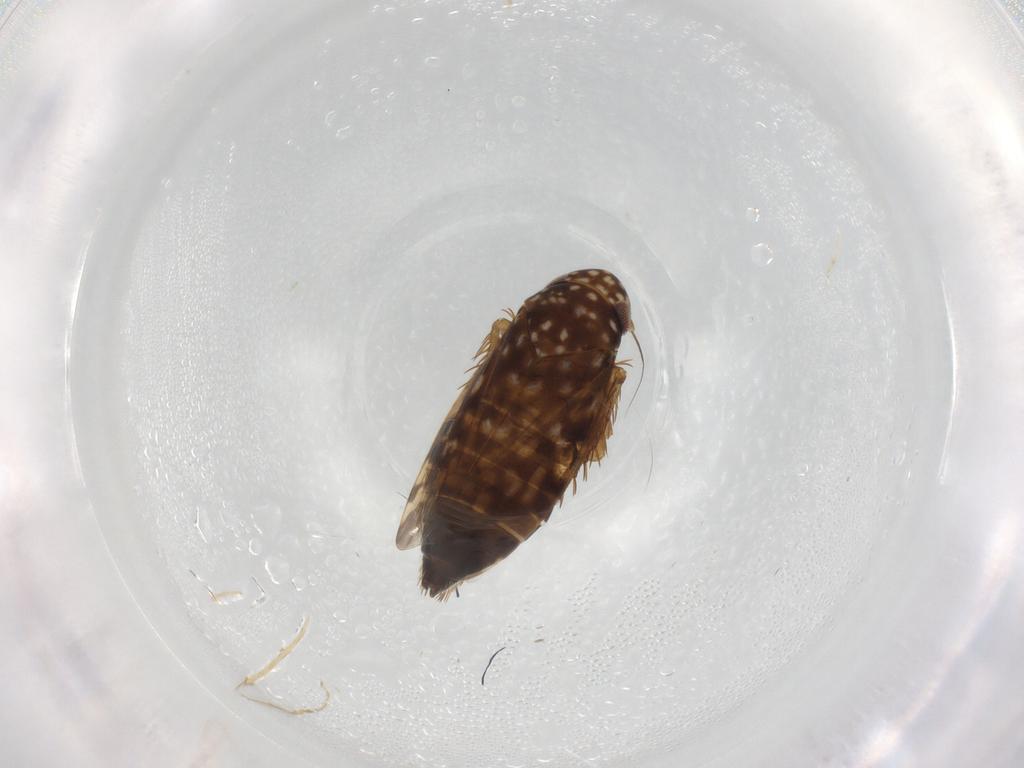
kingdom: Animalia
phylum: Arthropoda
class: Insecta
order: Hemiptera
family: Cicadellidae
